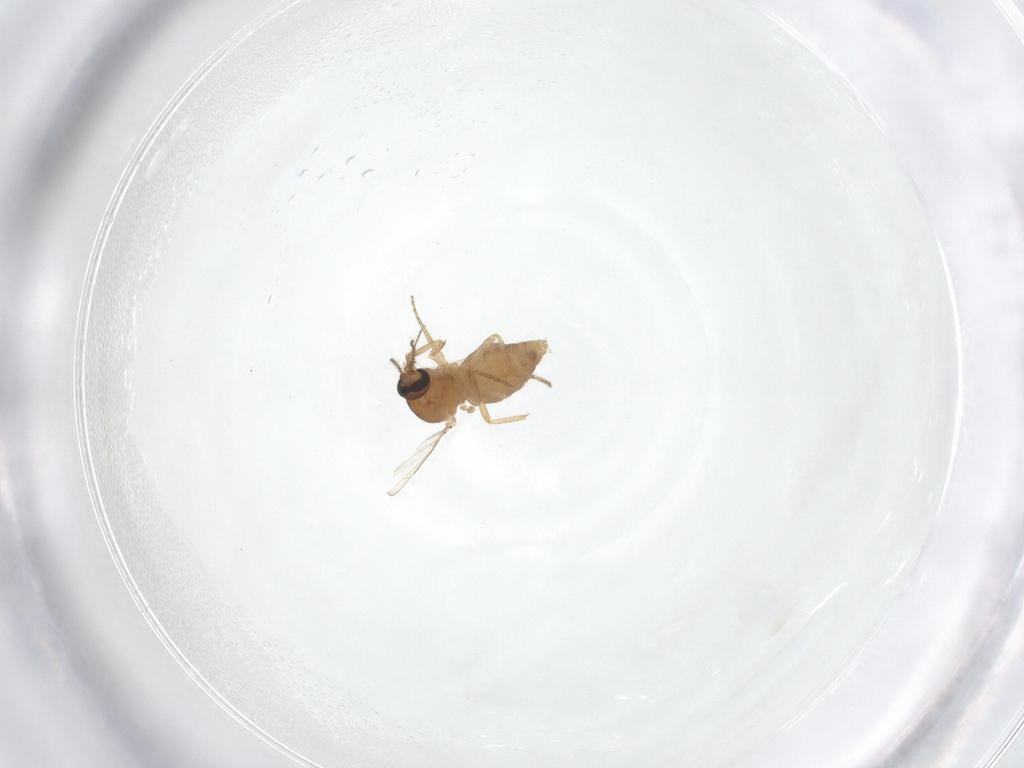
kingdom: Animalia
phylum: Arthropoda
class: Insecta
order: Diptera
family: Ceratopogonidae
